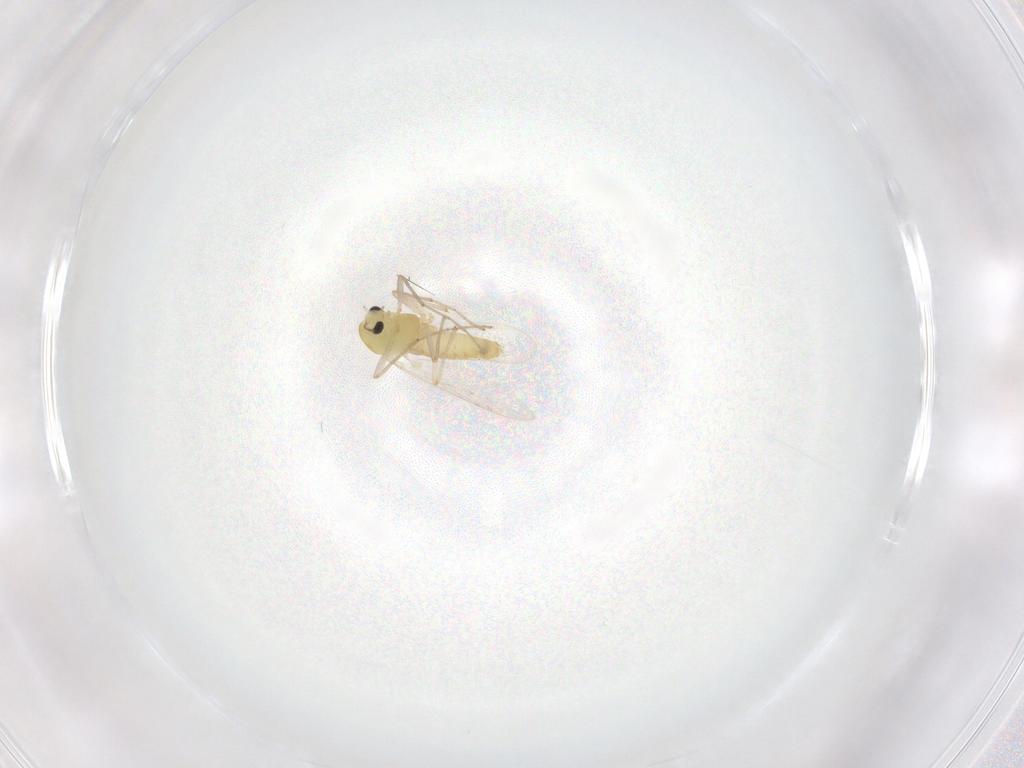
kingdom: Animalia
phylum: Arthropoda
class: Insecta
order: Diptera
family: Chironomidae
